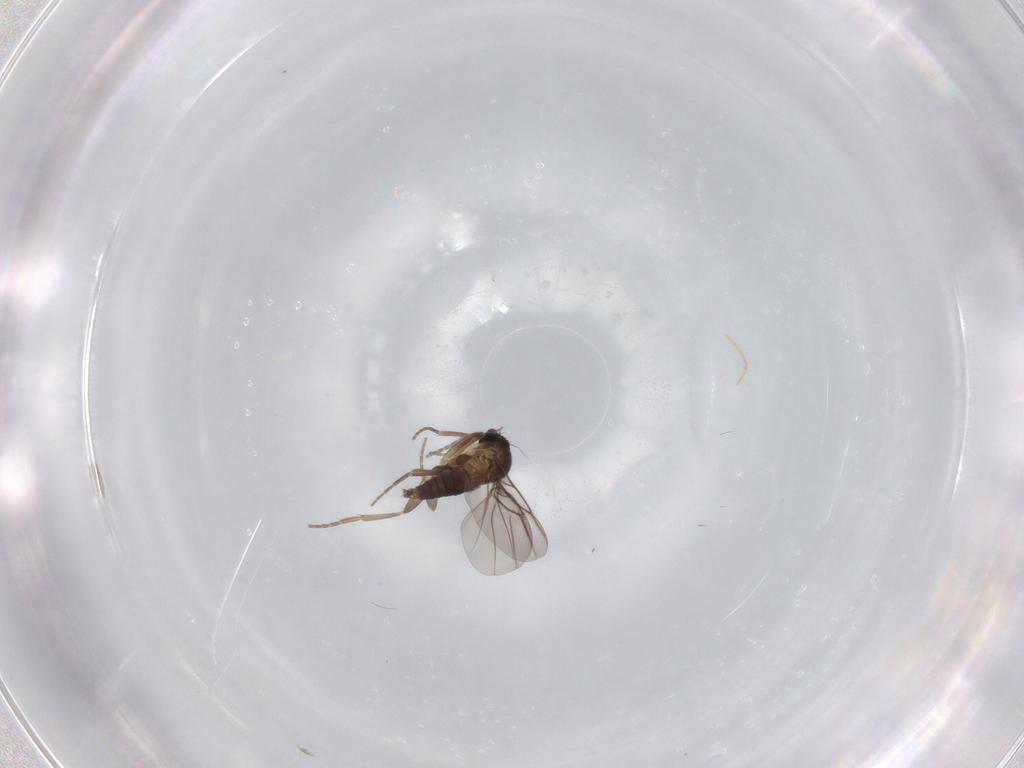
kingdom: Animalia
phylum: Arthropoda
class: Insecta
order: Diptera
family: Phoridae
